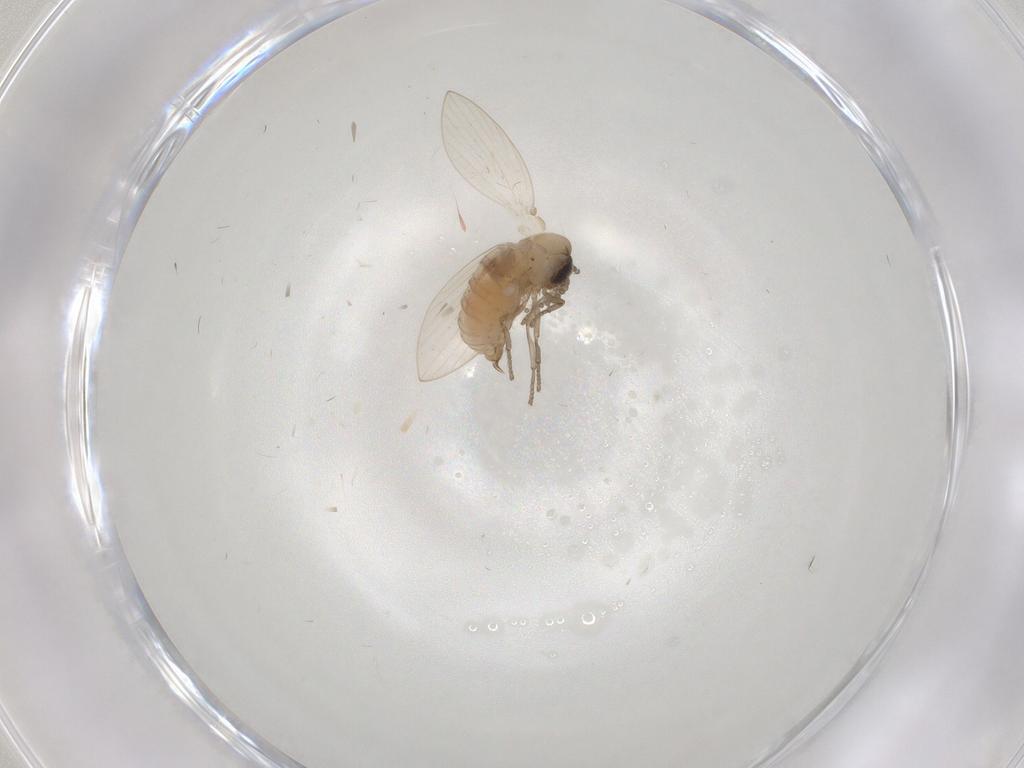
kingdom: Animalia
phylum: Arthropoda
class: Insecta
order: Diptera
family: Psychodidae
